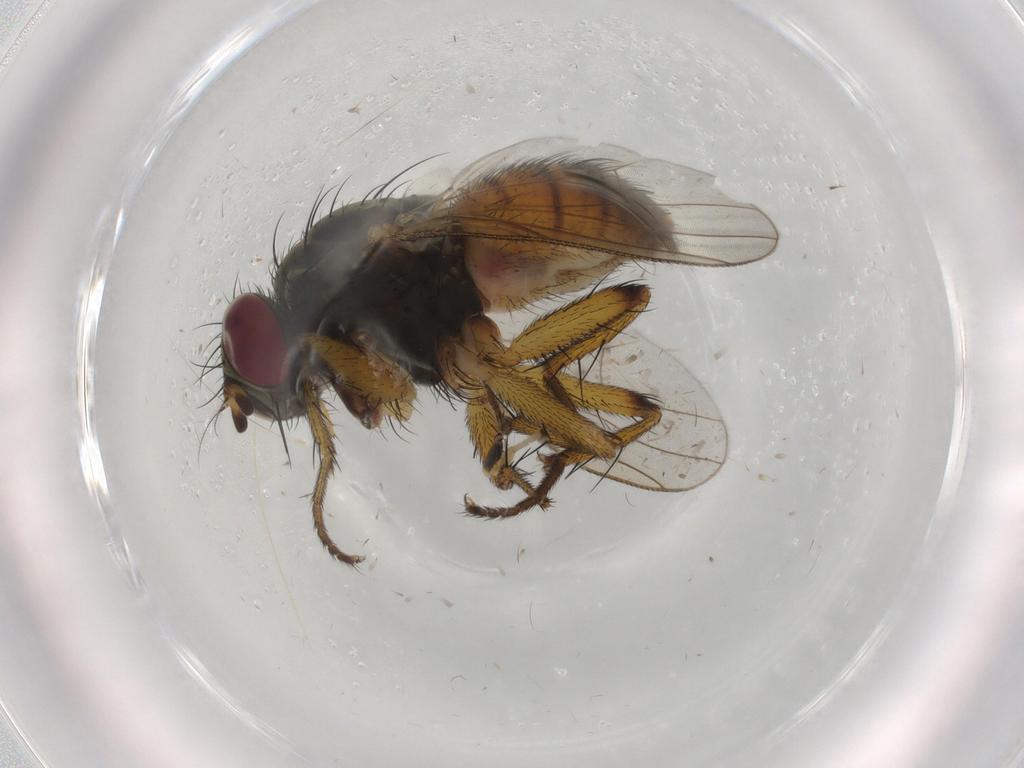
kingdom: Animalia
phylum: Arthropoda
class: Insecta
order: Diptera
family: Muscidae
